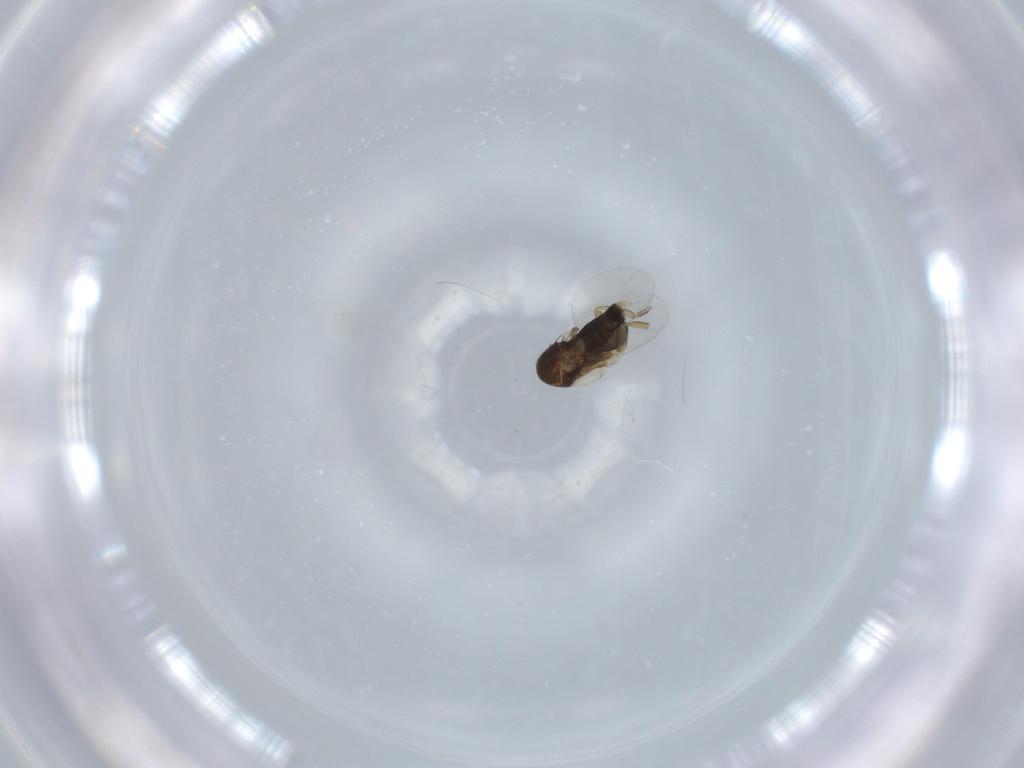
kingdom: Animalia
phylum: Arthropoda
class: Insecta
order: Diptera
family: Phoridae
